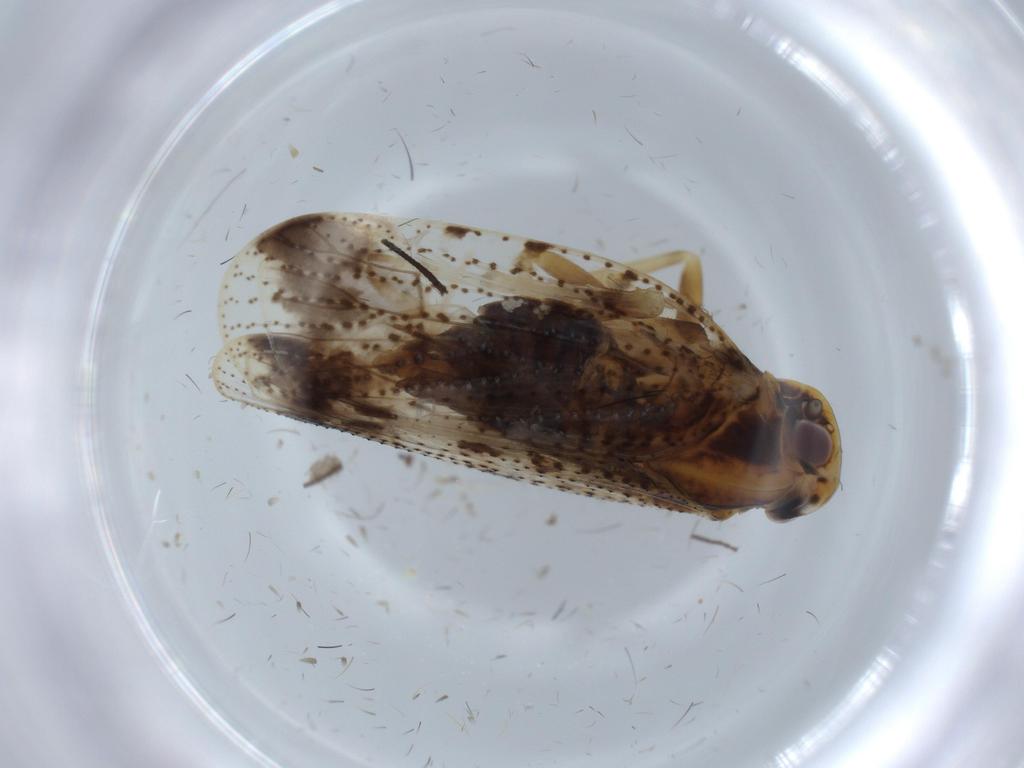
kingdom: Animalia
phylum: Arthropoda
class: Insecta
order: Hemiptera
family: Cixiidae
